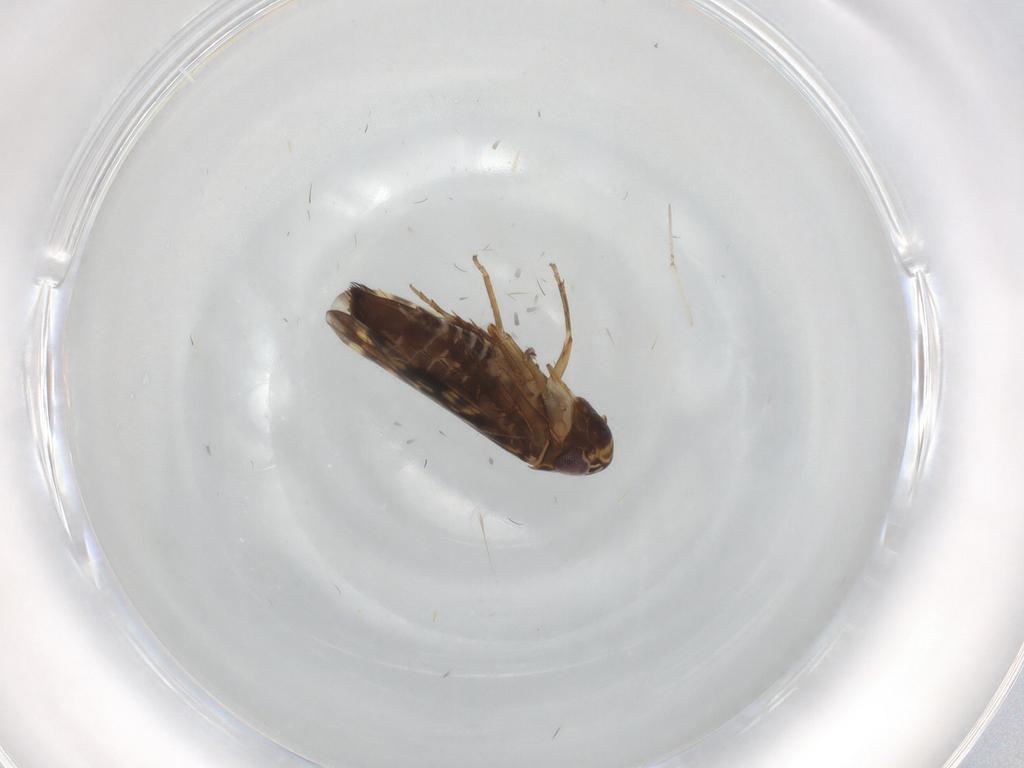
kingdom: Animalia
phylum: Arthropoda
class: Insecta
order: Hemiptera
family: Cicadellidae
